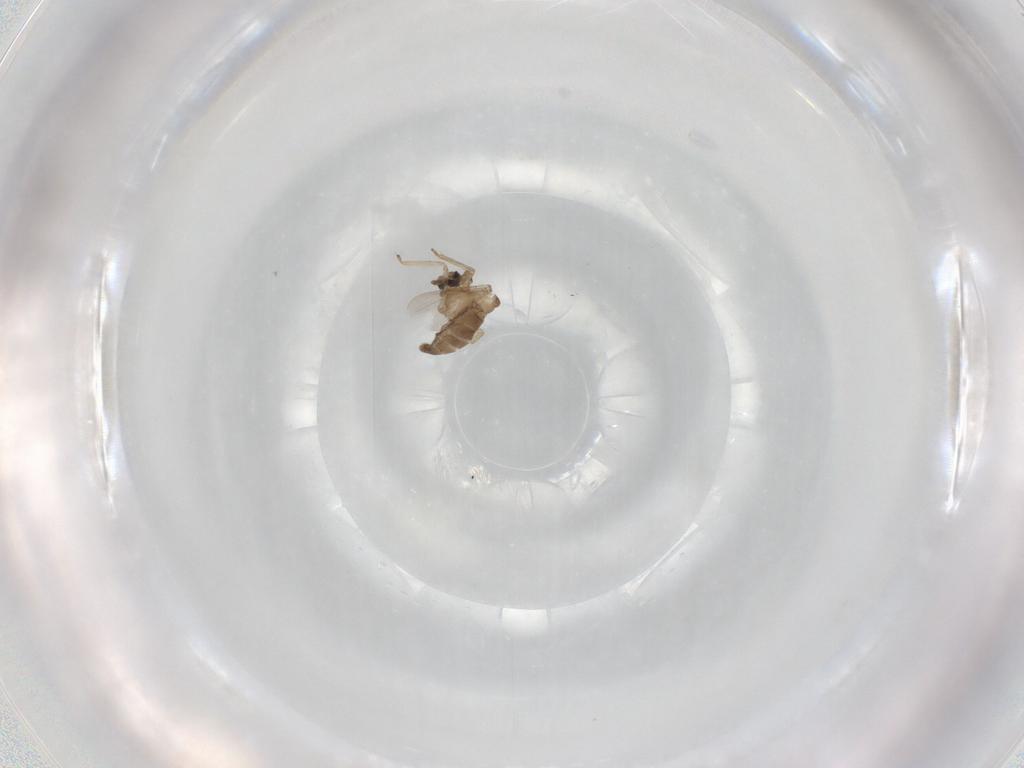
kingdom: Animalia
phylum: Arthropoda
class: Insecta
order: Diptera
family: Ceratopogonidae
